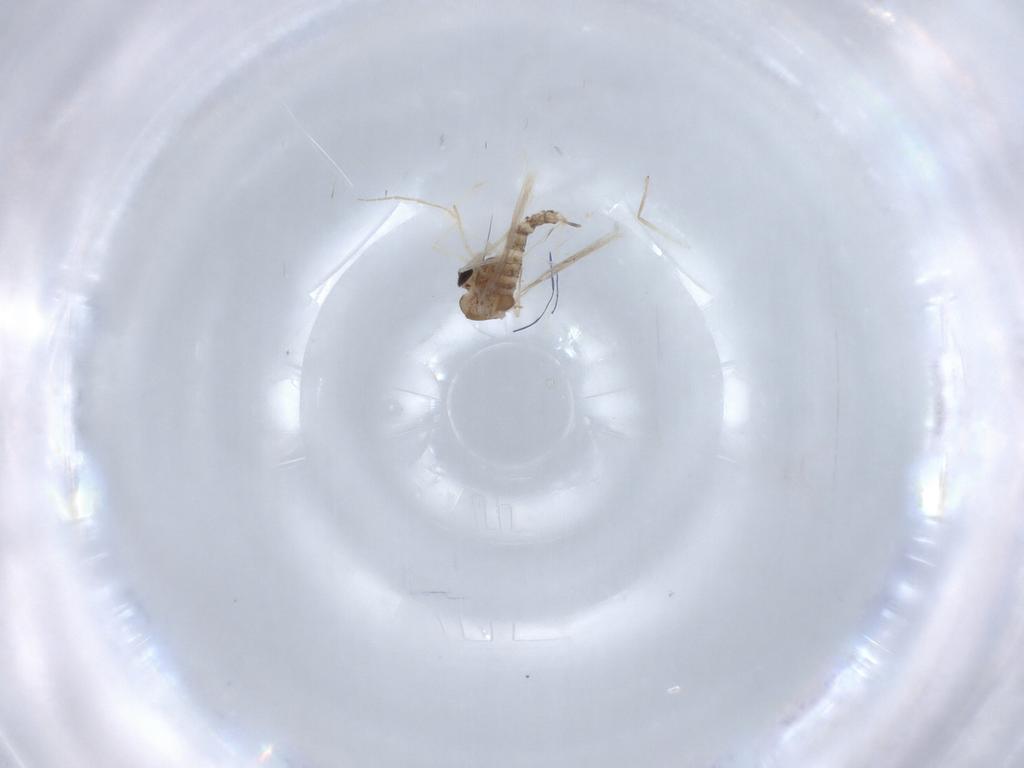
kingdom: Animalia
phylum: Arthropoda
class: Insecta
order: Diptera
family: Chironomidae
